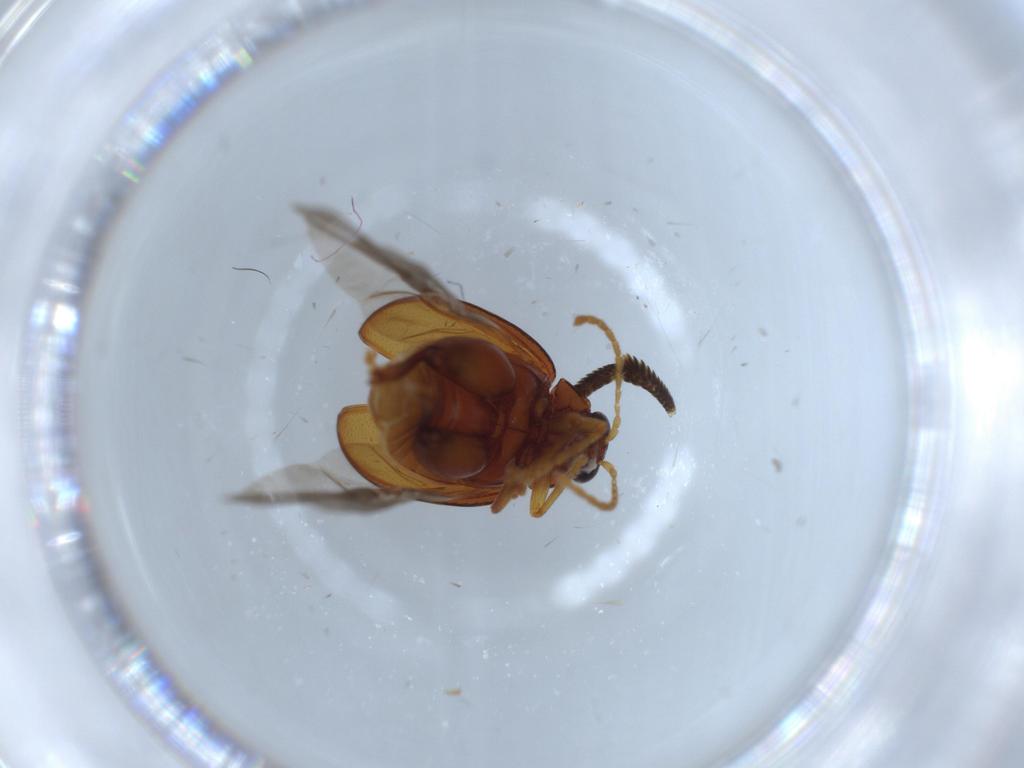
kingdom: Animalia
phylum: Arthropoda
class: Insecta
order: Coleoptera
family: Chrysomelidae
